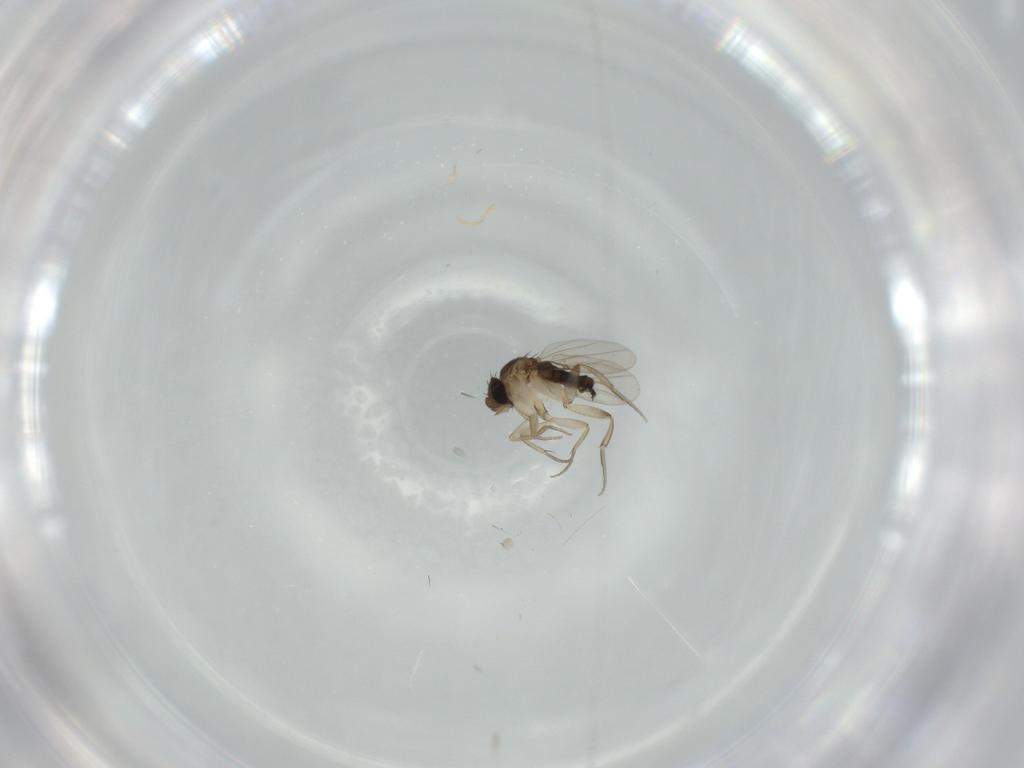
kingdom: Animalia
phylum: Arthropoda
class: Insecta
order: Diptera
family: Phoridae
